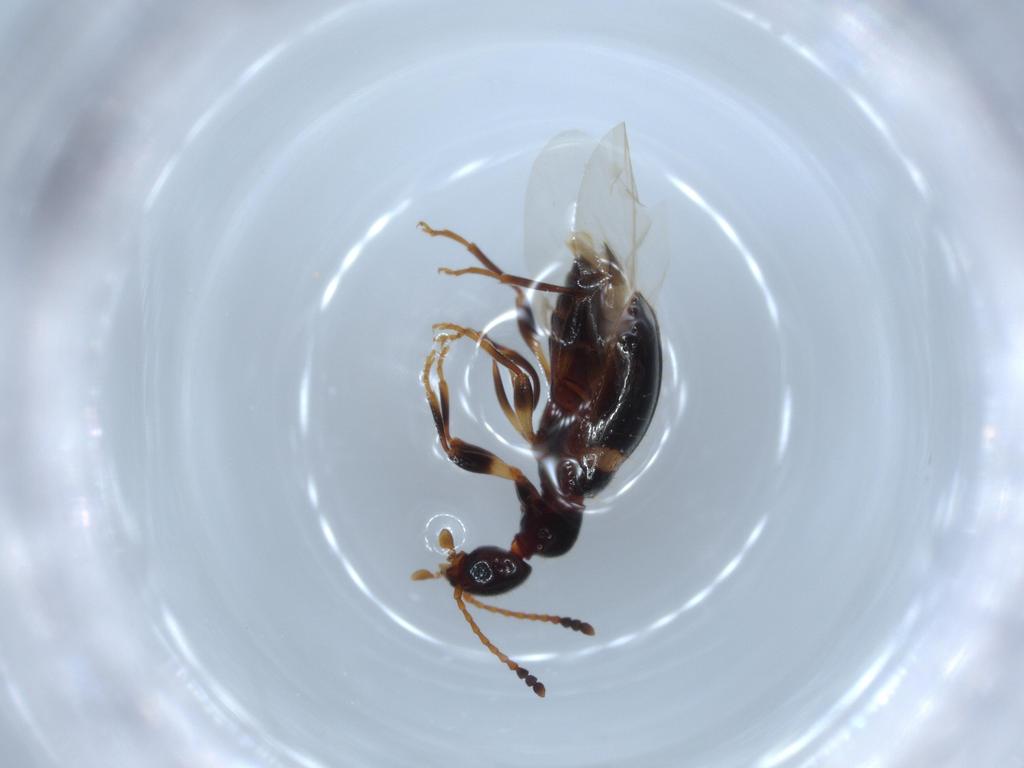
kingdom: Animalia
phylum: Arthropoda
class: Insecta
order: Coleoptera
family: Anthicidae
